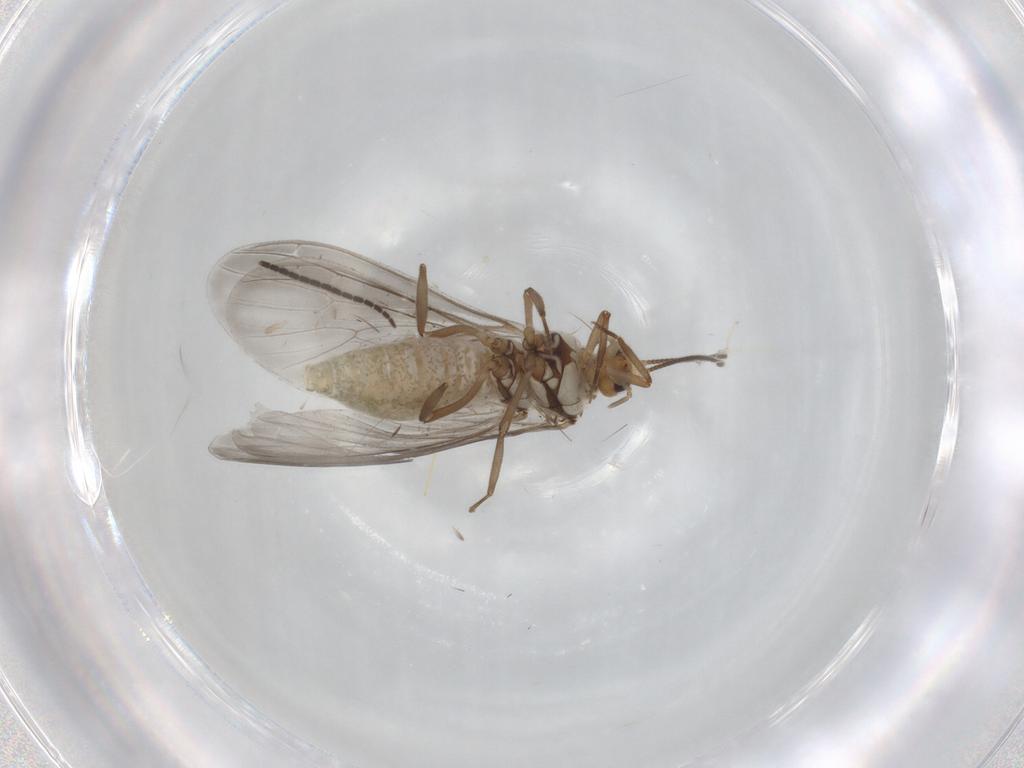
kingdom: Animalia
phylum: Arthropoda
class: Insecta
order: Neuroptera
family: Coniopterygidae
